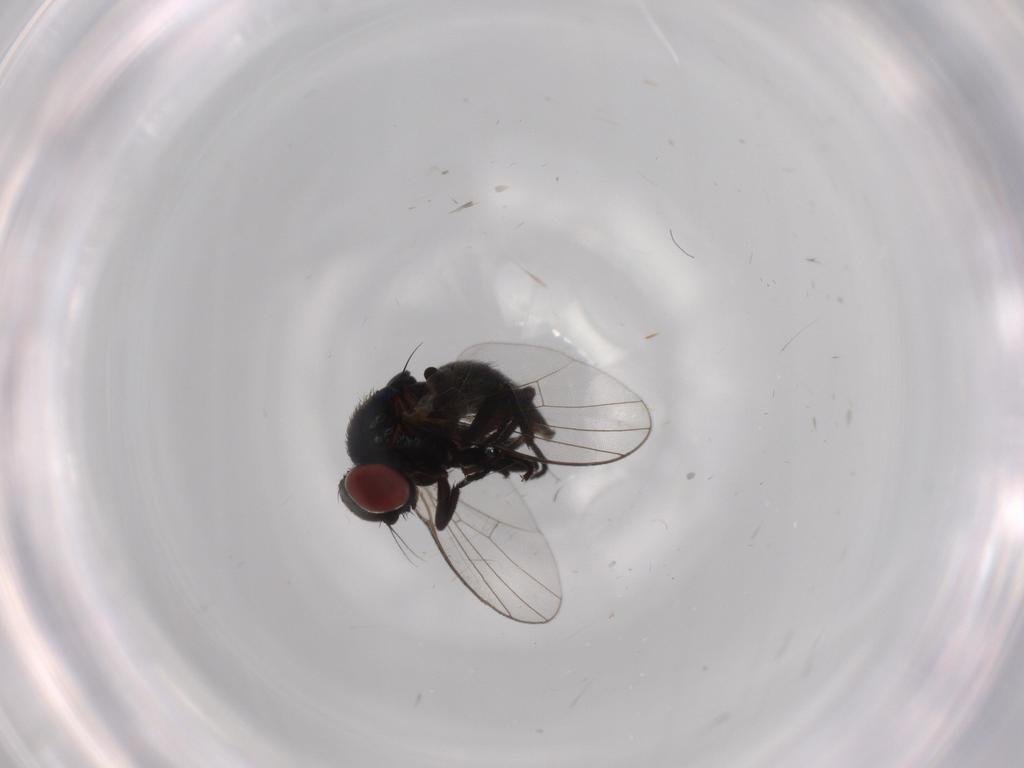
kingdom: Animalia
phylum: Arthropoda
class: Insecta
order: Diptera
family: Agromyzidae
